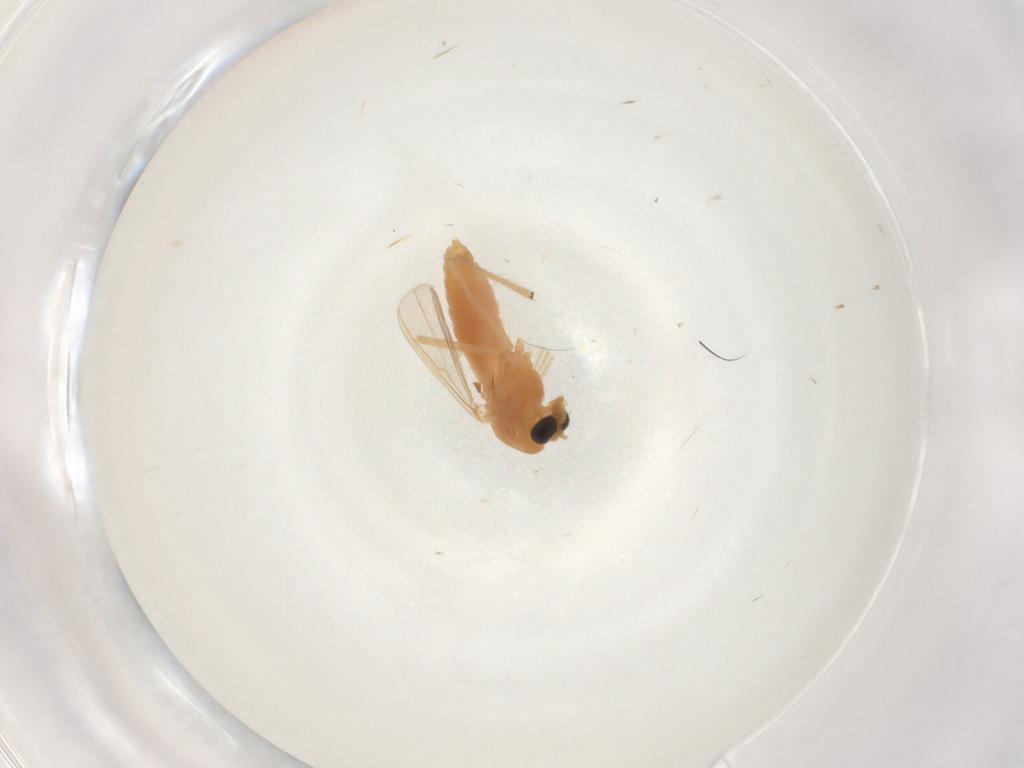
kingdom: Animalia
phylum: Arthropoda
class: Insecta
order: Diptera
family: Chironomidae
